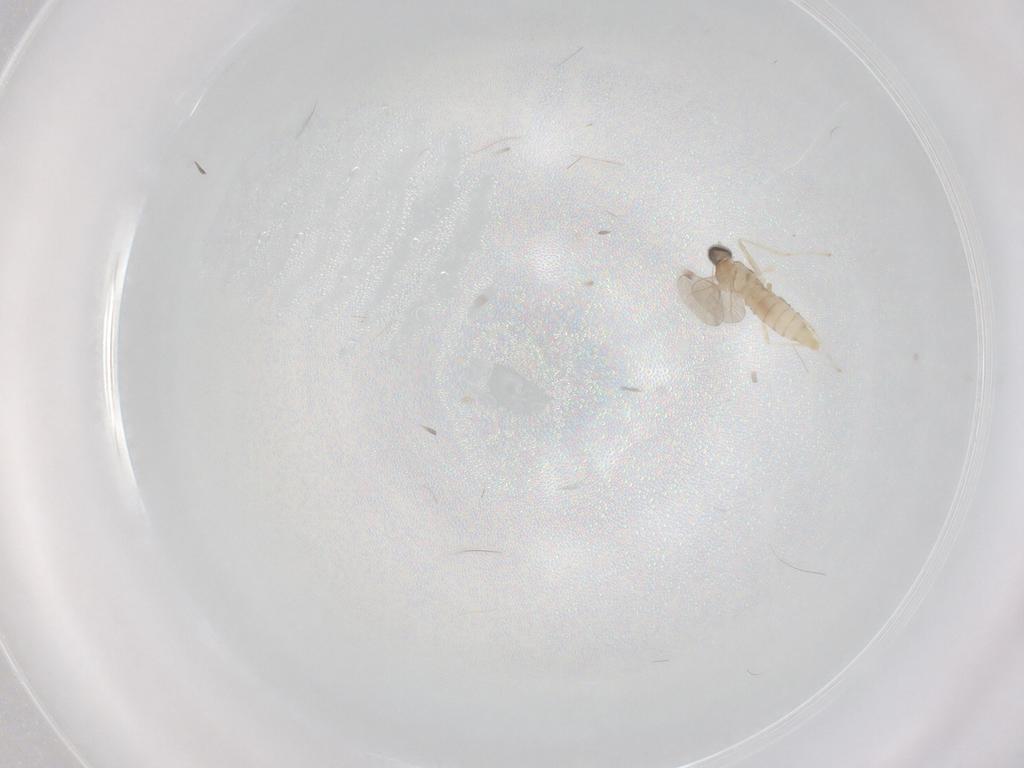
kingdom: Animalia
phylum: Arthropoda
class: Insecta
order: Diptera
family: Cecidomyiidae
